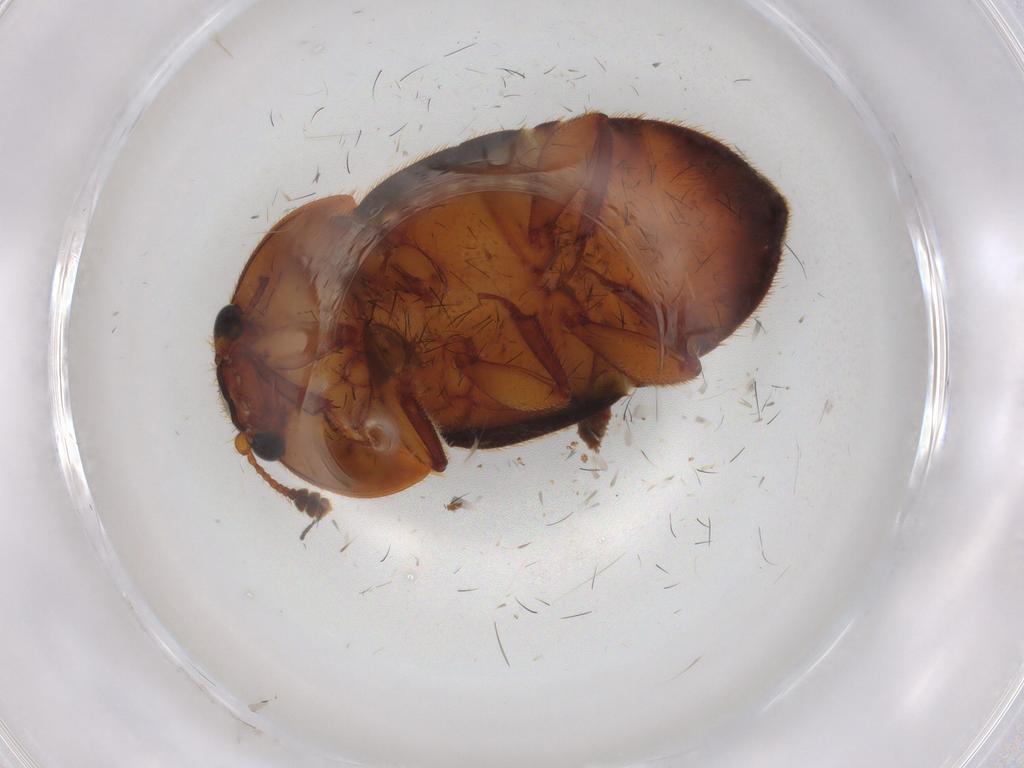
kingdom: Animalia
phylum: Arthropoda
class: Insecta
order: Coleoptera
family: Nitidulidae
